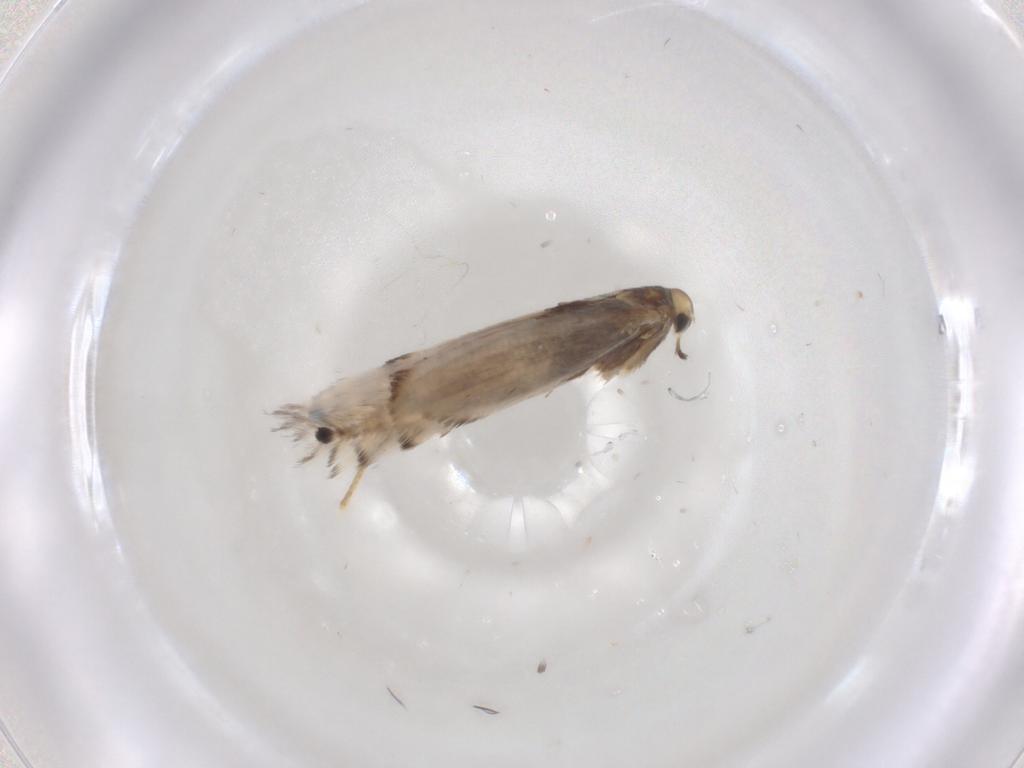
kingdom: Animalia
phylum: Arthropoda
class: Insecta
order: Lepidoptera
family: Gracillariidae
